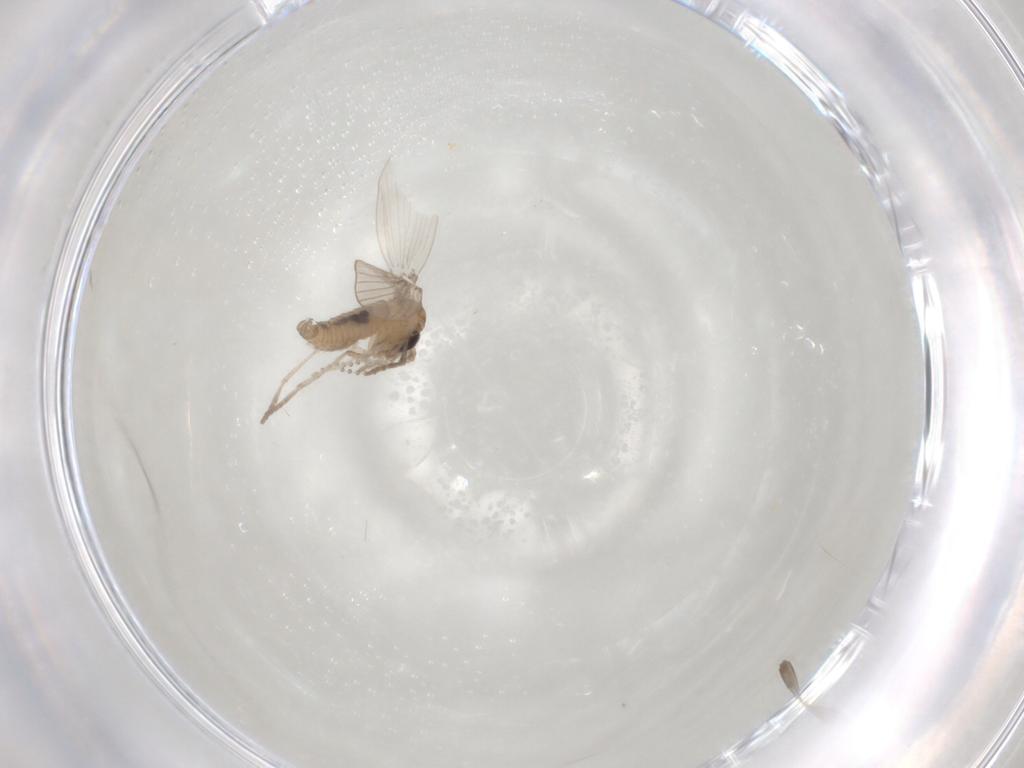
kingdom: Animalia
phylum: Arthropoda
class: Insecta
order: Diptera
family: Psychodidae
